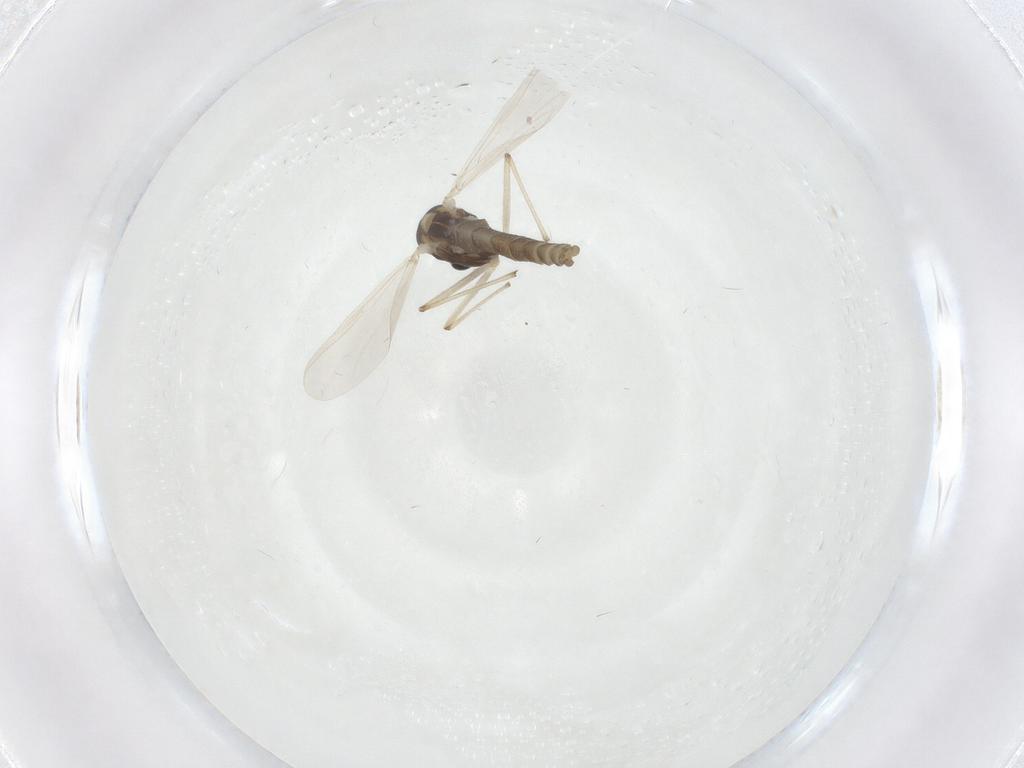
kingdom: Animalia
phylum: Arthropoda
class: Insecta
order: Diptera
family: Chironomidae
